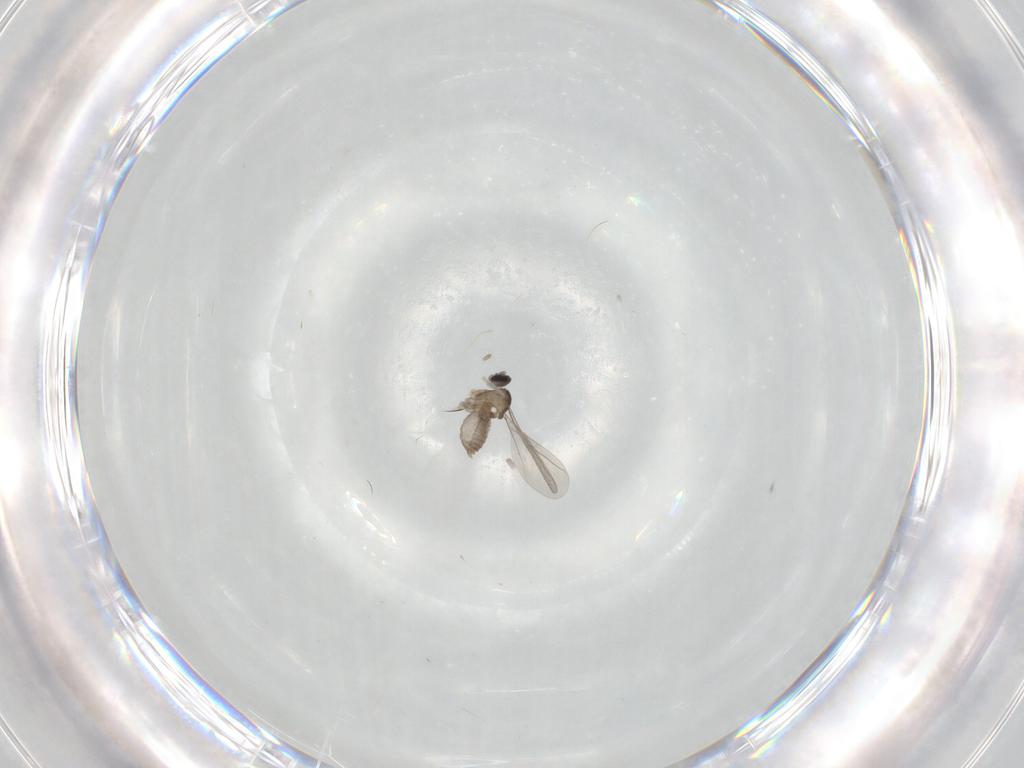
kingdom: Animalia
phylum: Arthropoda
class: Insecta
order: Diptera
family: Cecidomyiidae
